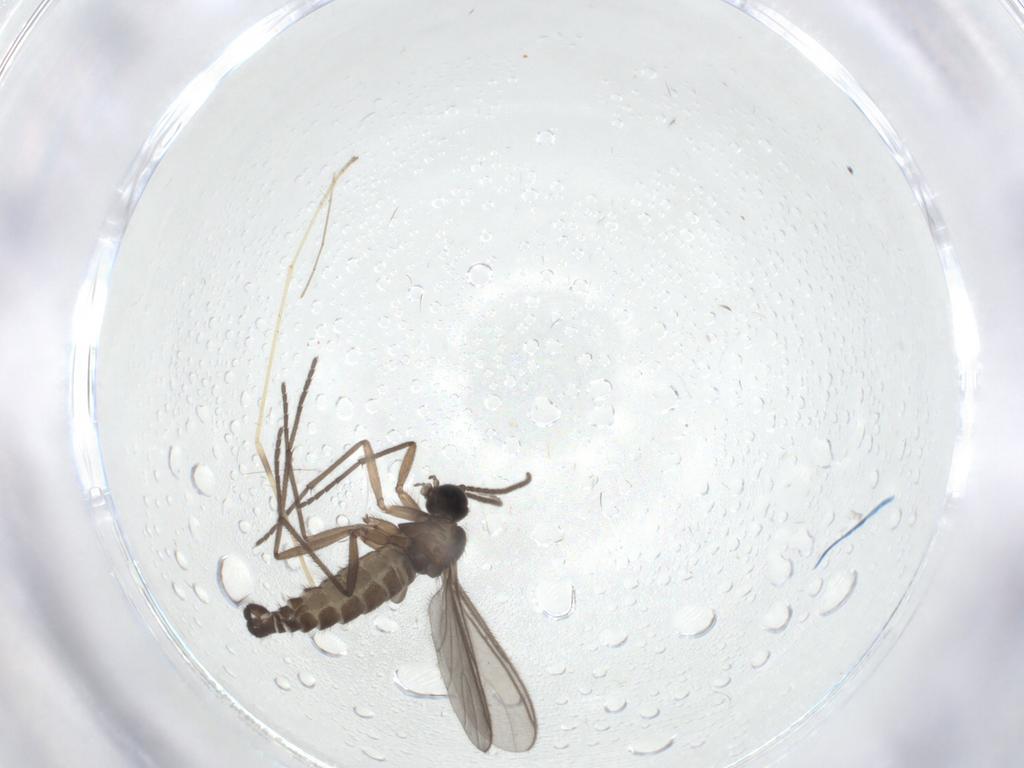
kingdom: Animalia
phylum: Arthropoda
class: Insecta
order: Diptera
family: Sciaridae
